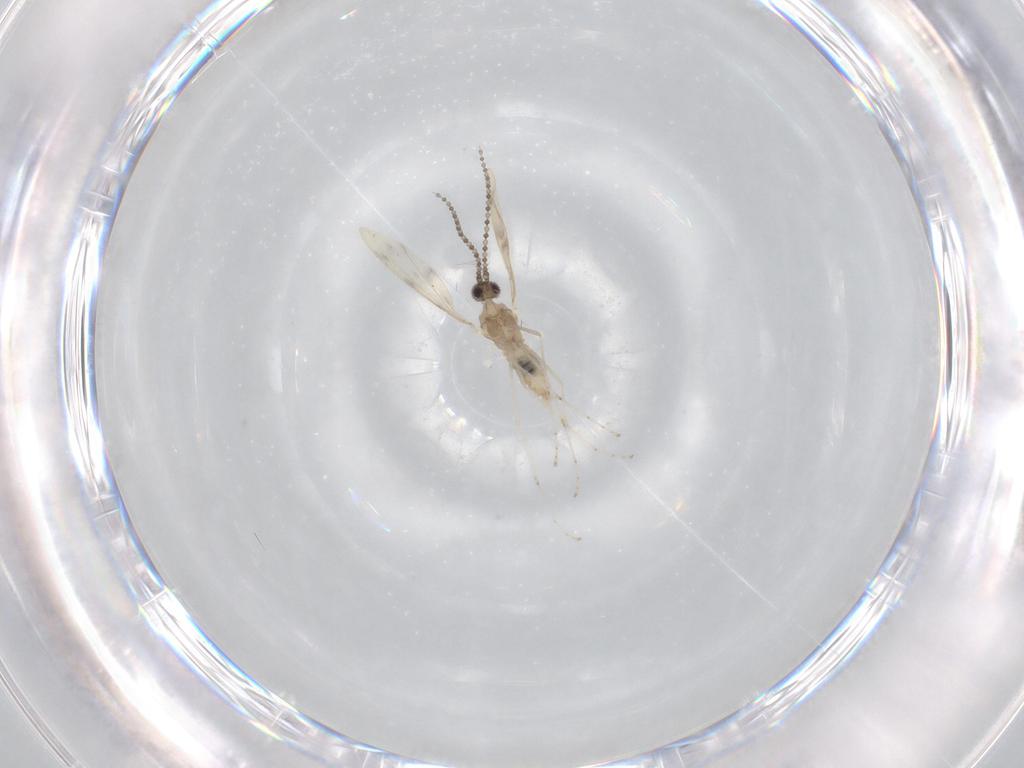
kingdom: Animalia
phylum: Arthropoda
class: Insecta
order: Diptera
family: Cecidomyiidae
